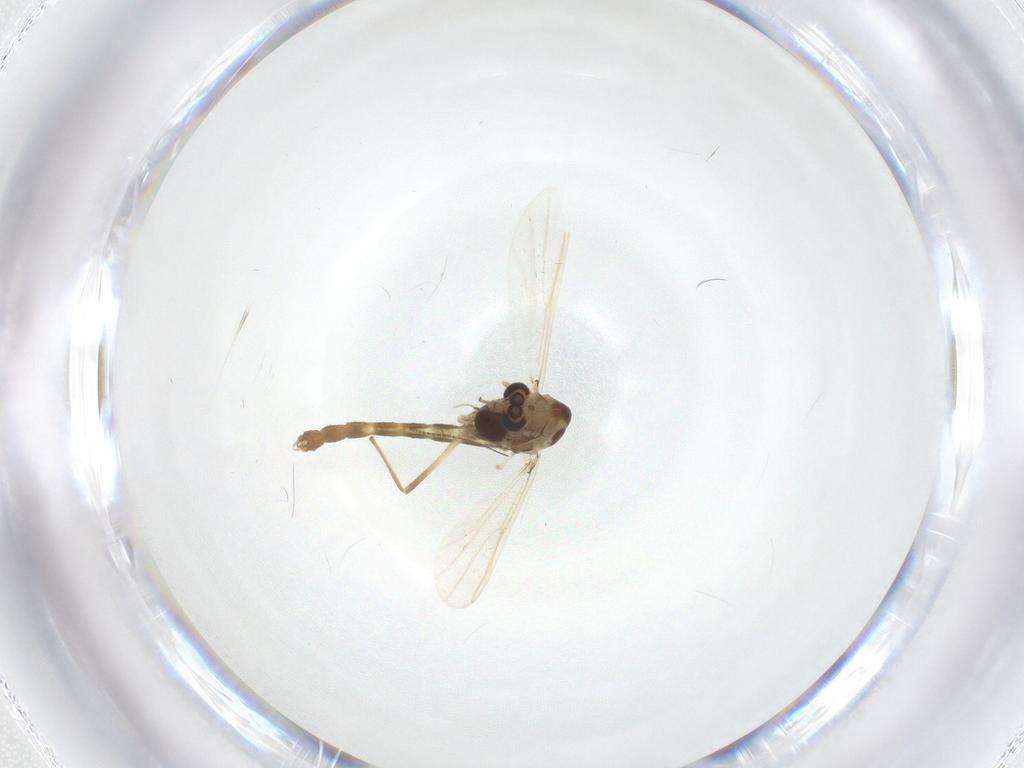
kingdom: Animalia
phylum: Arthropoda
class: Insecta
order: Diptera
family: Chironomidae
